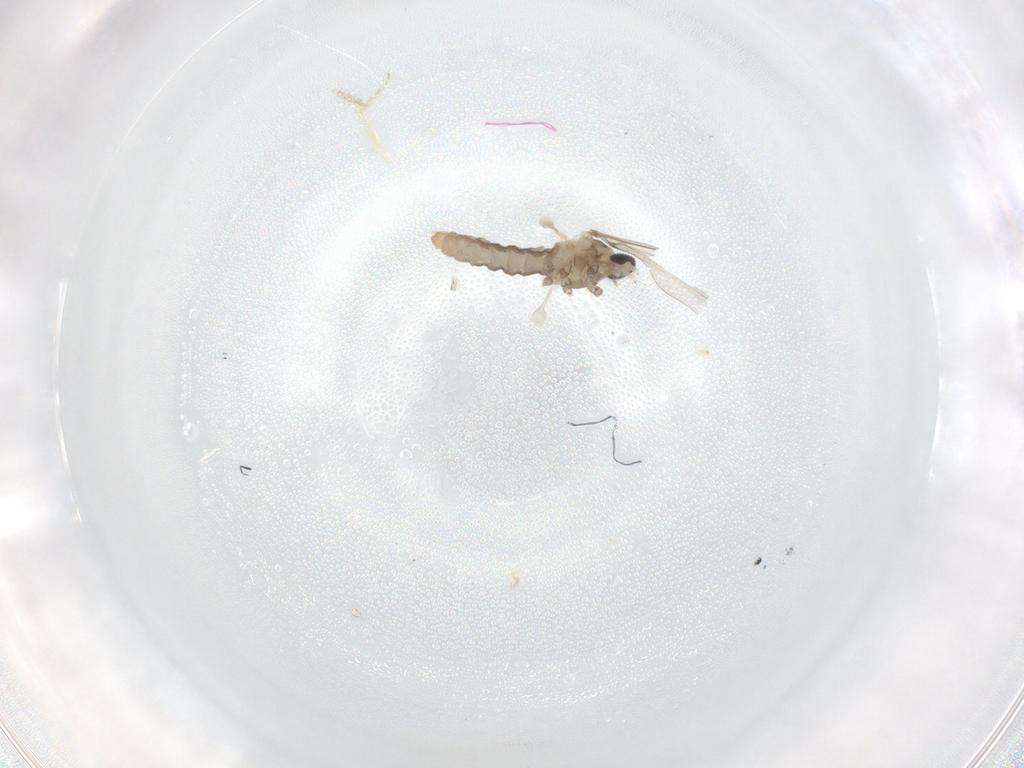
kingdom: Animalia
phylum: Arthropoda
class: Insecta
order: Diptera
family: Cecidomyiidae
